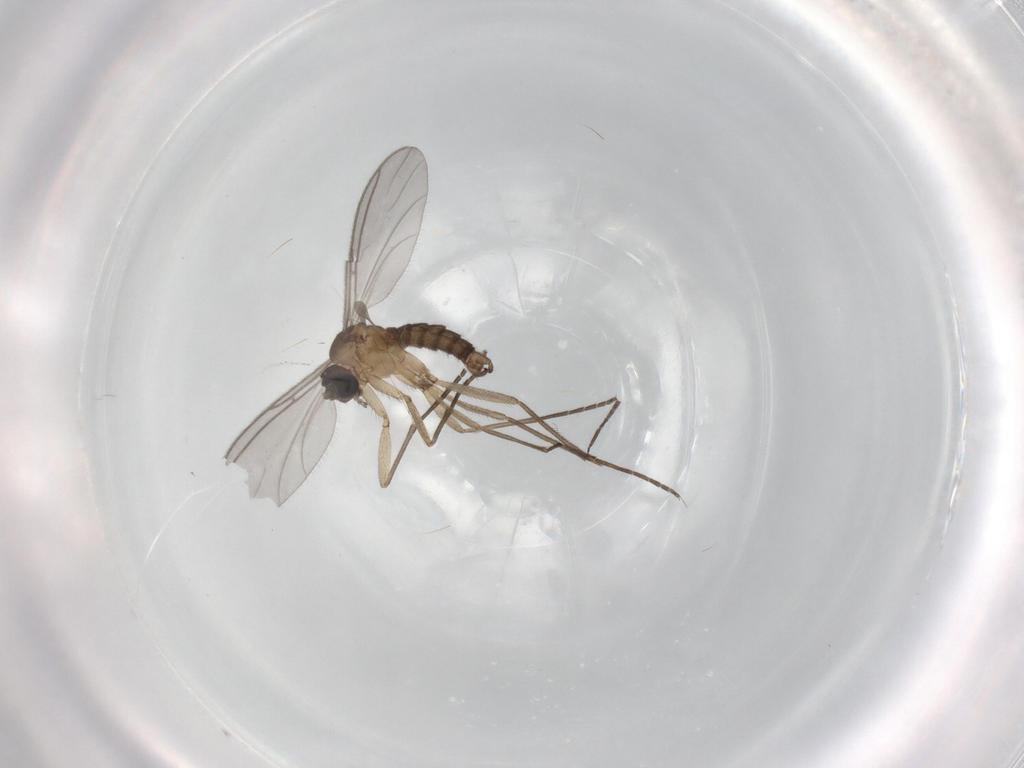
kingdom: Animalia
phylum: Arthropoda
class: Insecta
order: Diptera
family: Sciaridae
